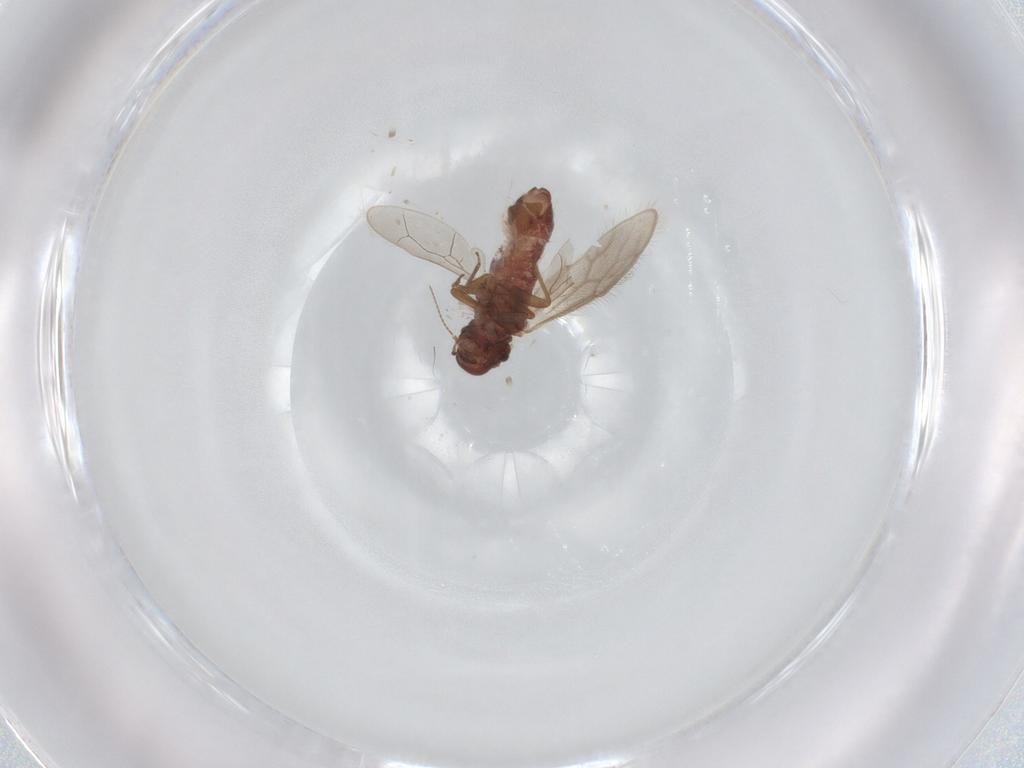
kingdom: Animalia
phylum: Arthropoda
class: Insecta
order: Psocodea
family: Archipsocidae
